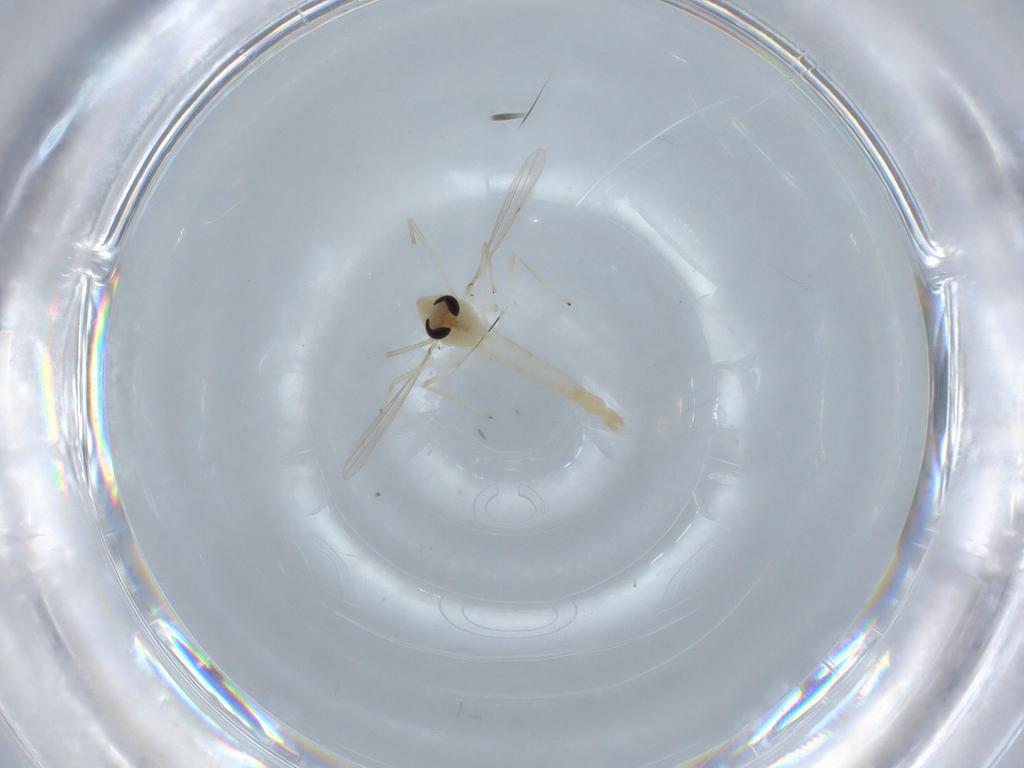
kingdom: Animalia
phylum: Arthropoda
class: Insecta
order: Diptera
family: Chironomidae
